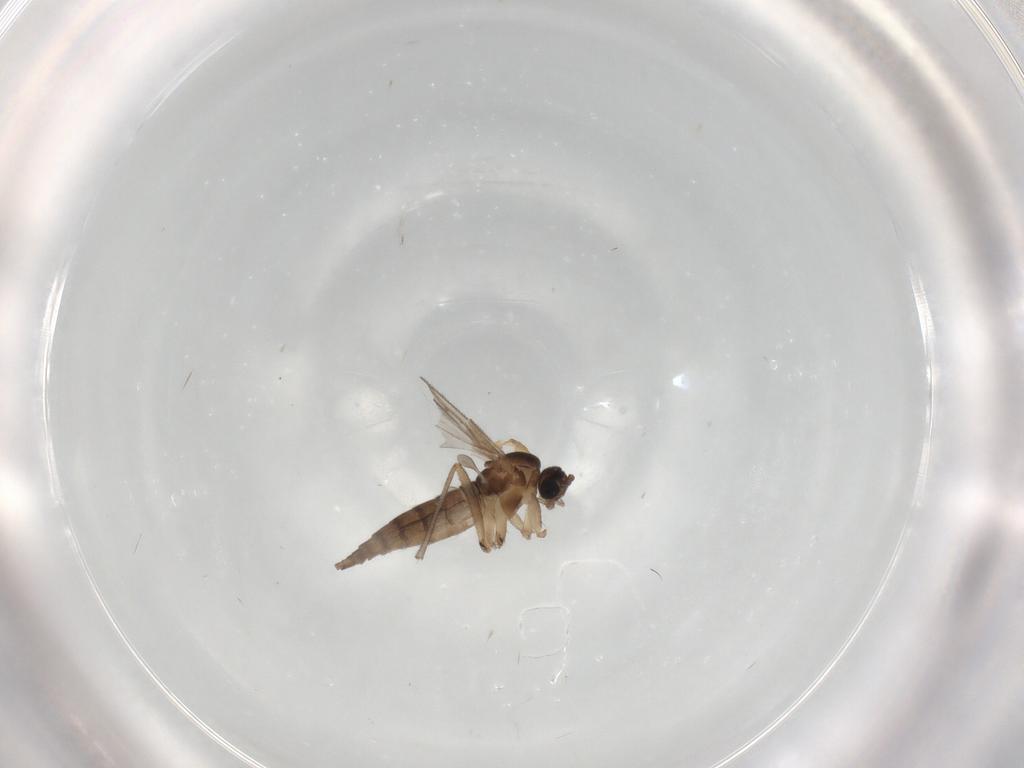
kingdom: Animalia
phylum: Arthropoda
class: Insecta
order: Diptera
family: Sciaridae
